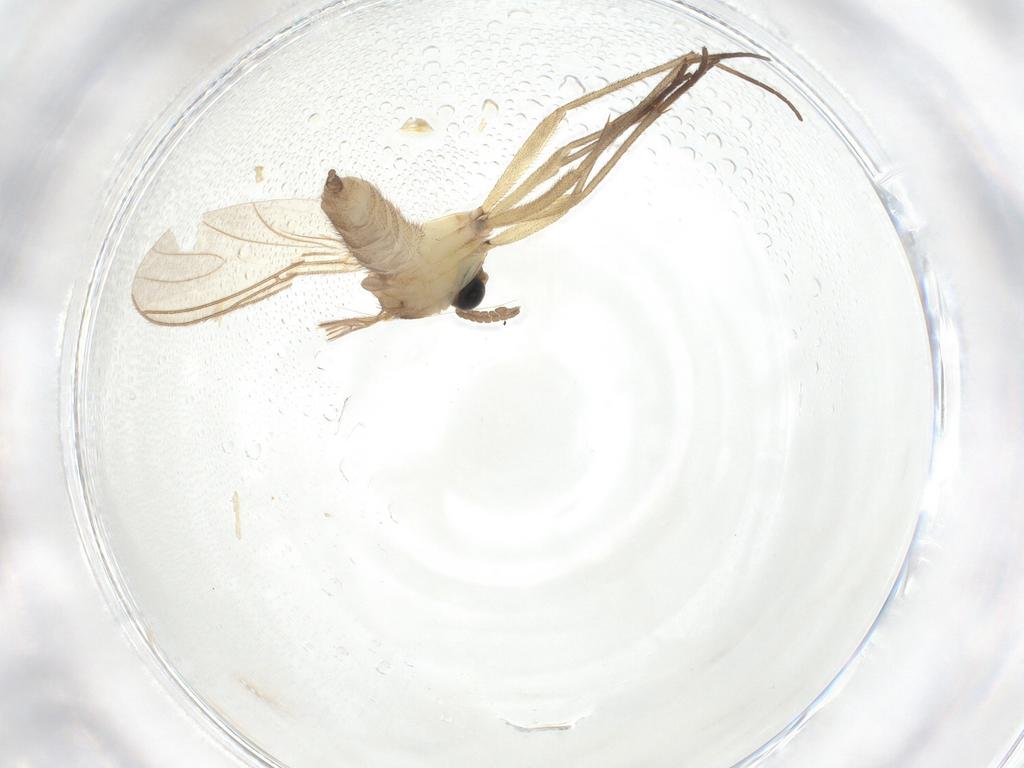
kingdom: Animalia
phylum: Arthropoda
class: Insecta
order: Diptera
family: Sciaridae
